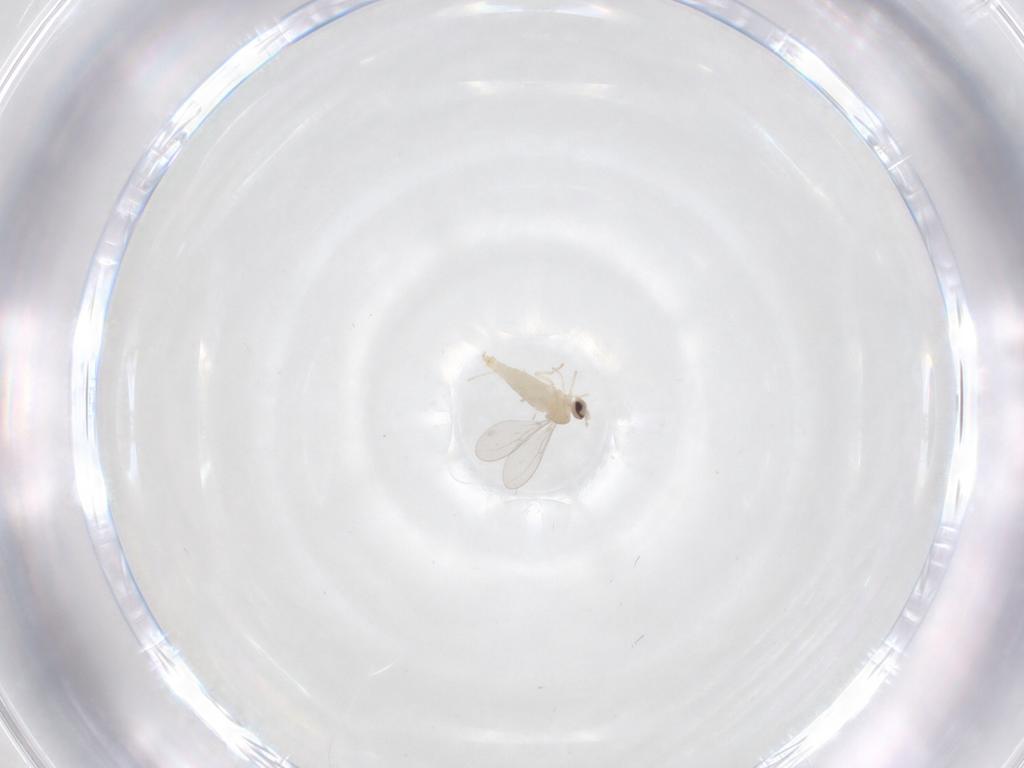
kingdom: Animalia
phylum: Arthropoda
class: Insecta
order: Diptera
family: Cecidomyiidae
